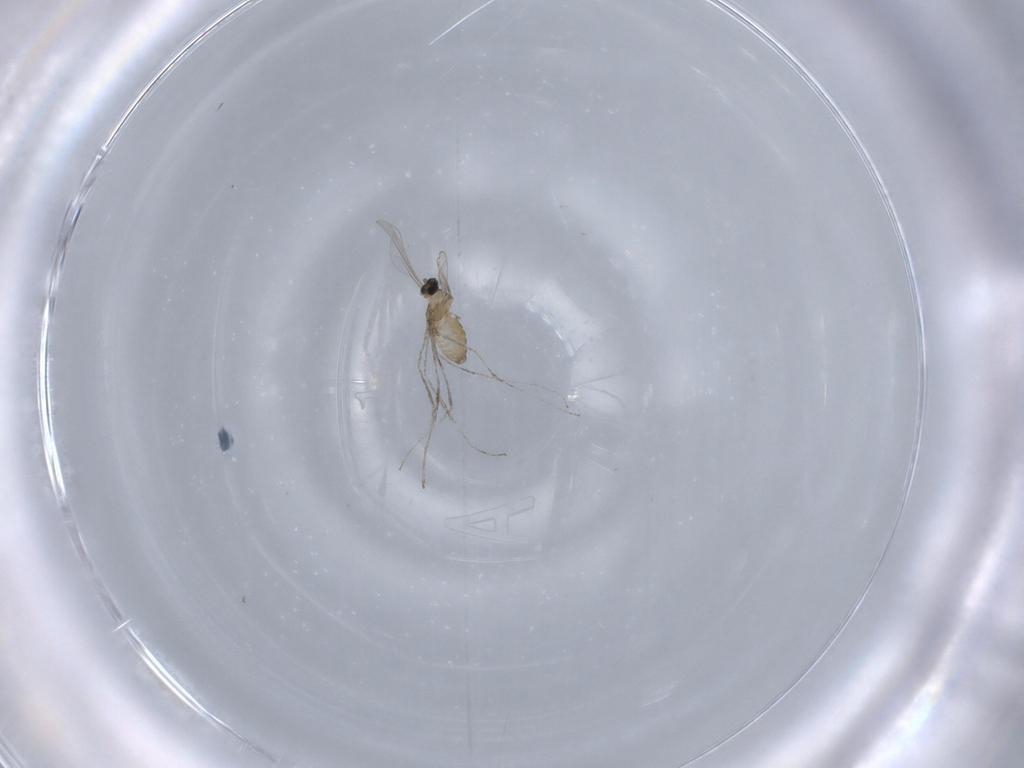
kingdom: Animalia
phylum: Arthropoda
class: Insecta
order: Diptera
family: Cecidomyiidae
